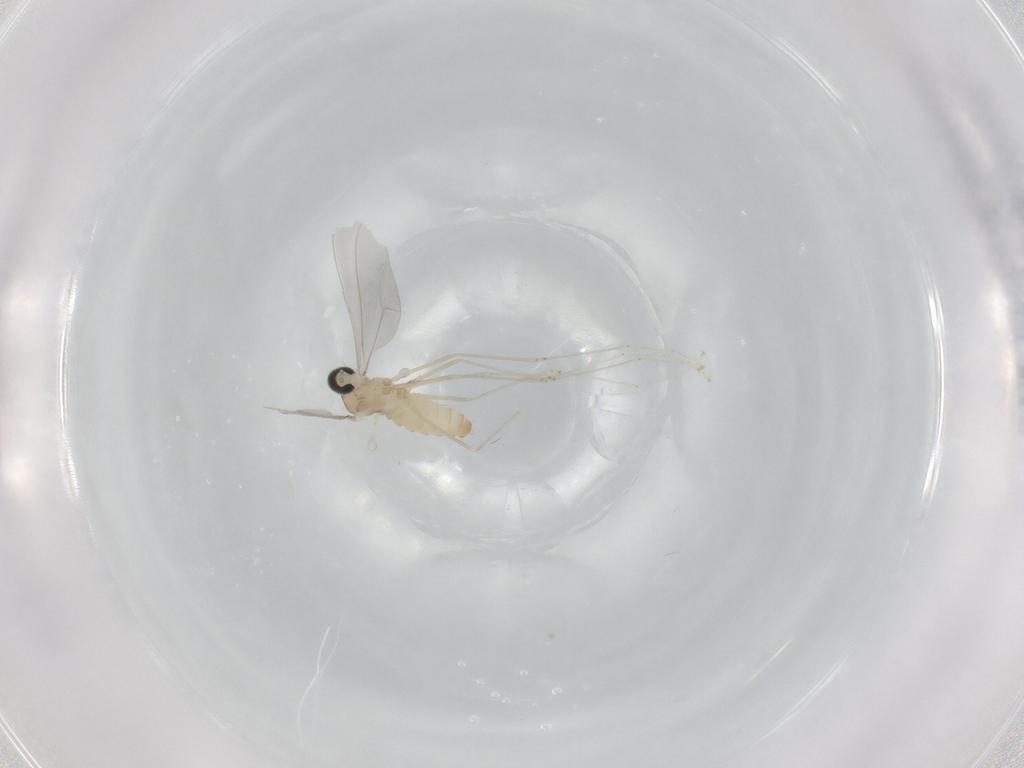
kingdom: Animalia
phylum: Arthropoda
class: Insecta
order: Diptera
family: Cecidomyiidae
